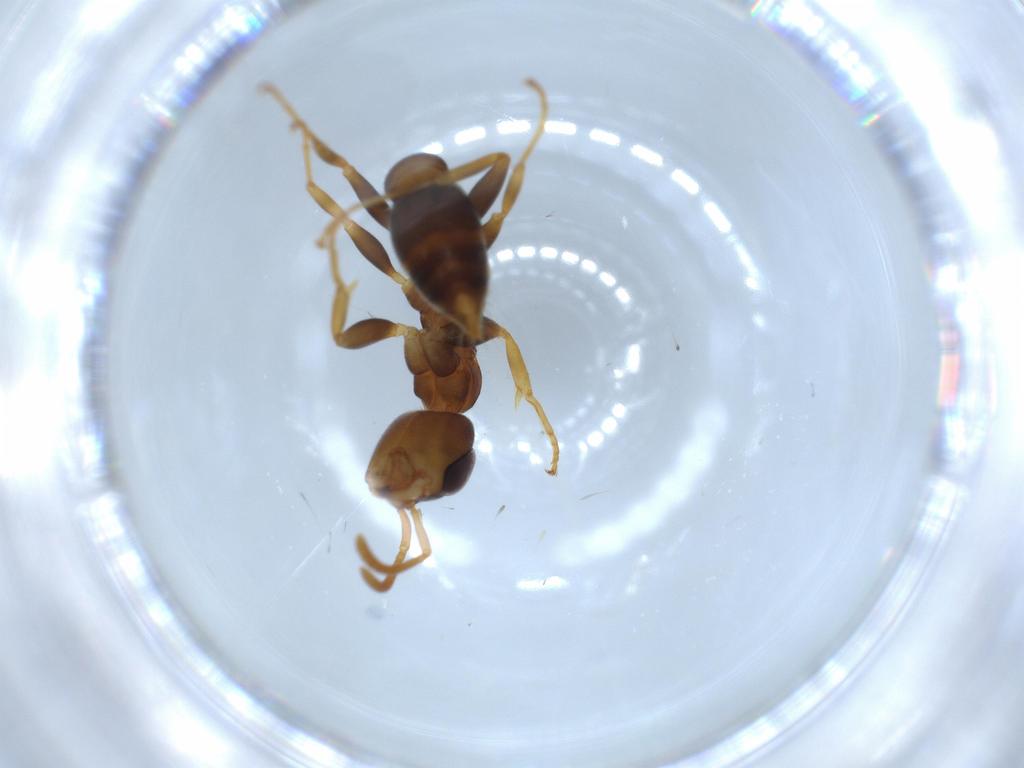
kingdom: Animalia
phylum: Arthropoda
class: Insecta
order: Hymenoptera
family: Formicidae
